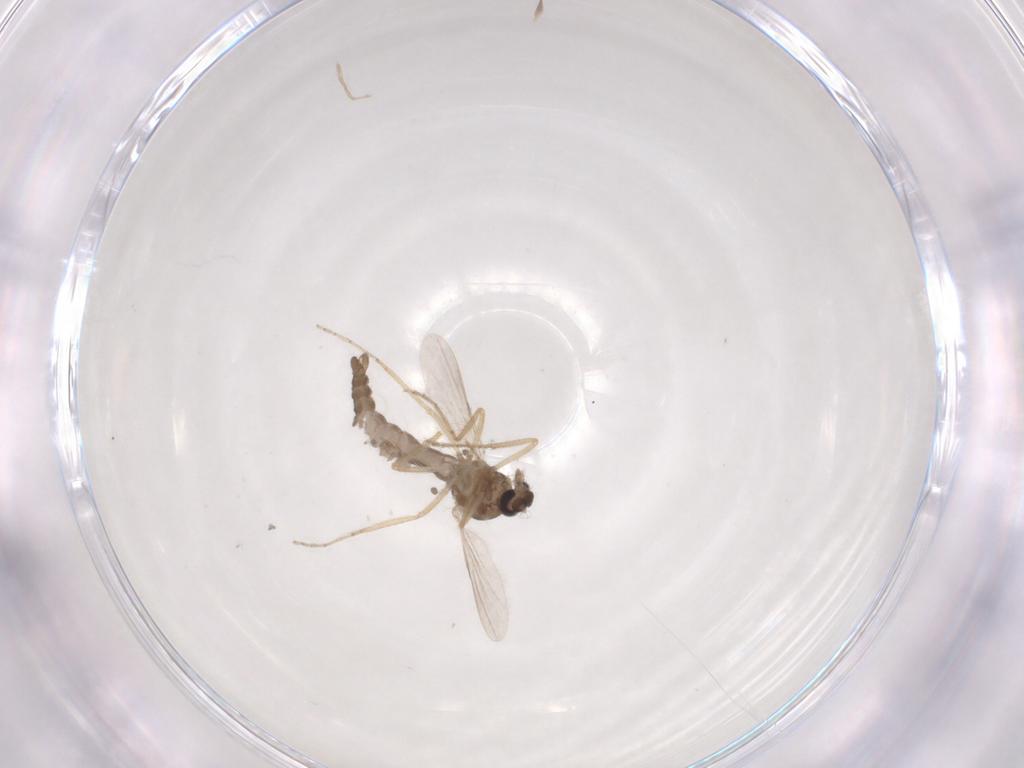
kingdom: Animalia
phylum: Arthropoda
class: Insecta
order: Diptera
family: Ceratopogonidae
